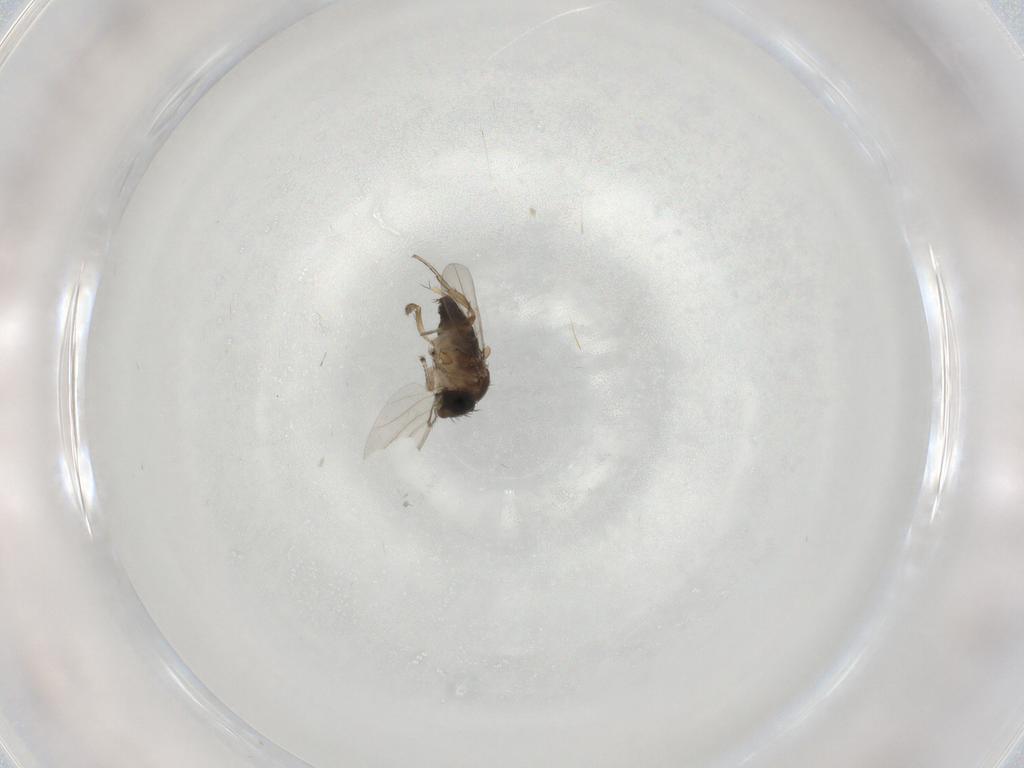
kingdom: Animalia
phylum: Arthropoda
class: Insecta
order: Diptera
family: Phoridae
